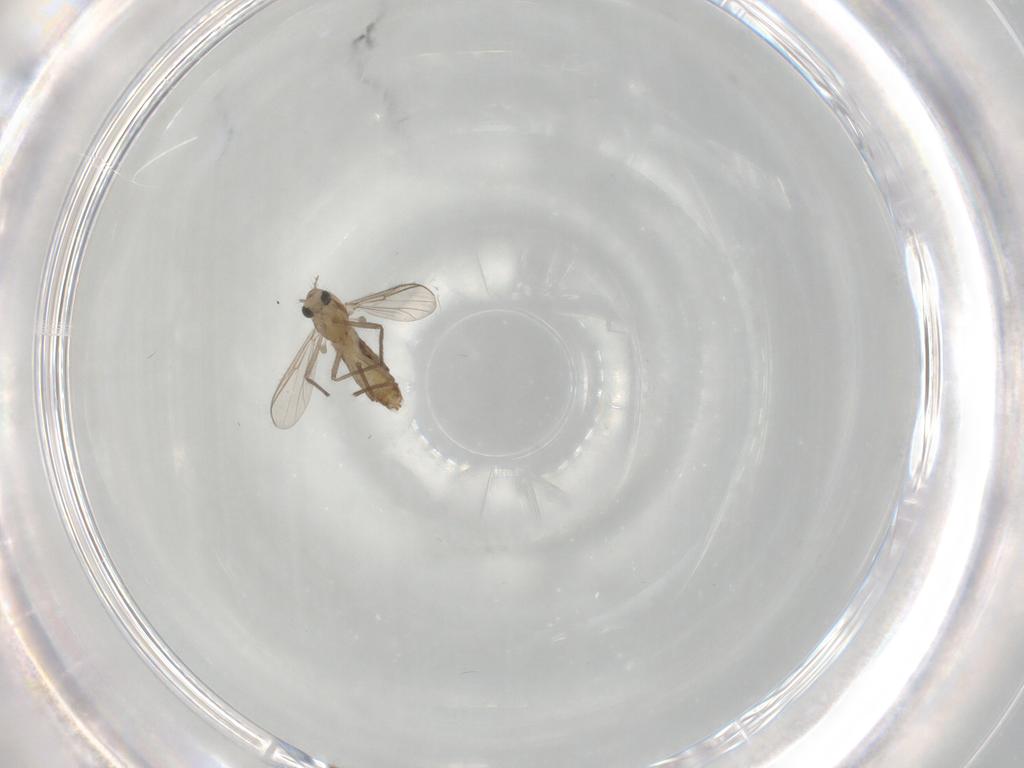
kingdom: Animalia
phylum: Arthropoda
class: Insecta
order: Diptera
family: Chironomidae
